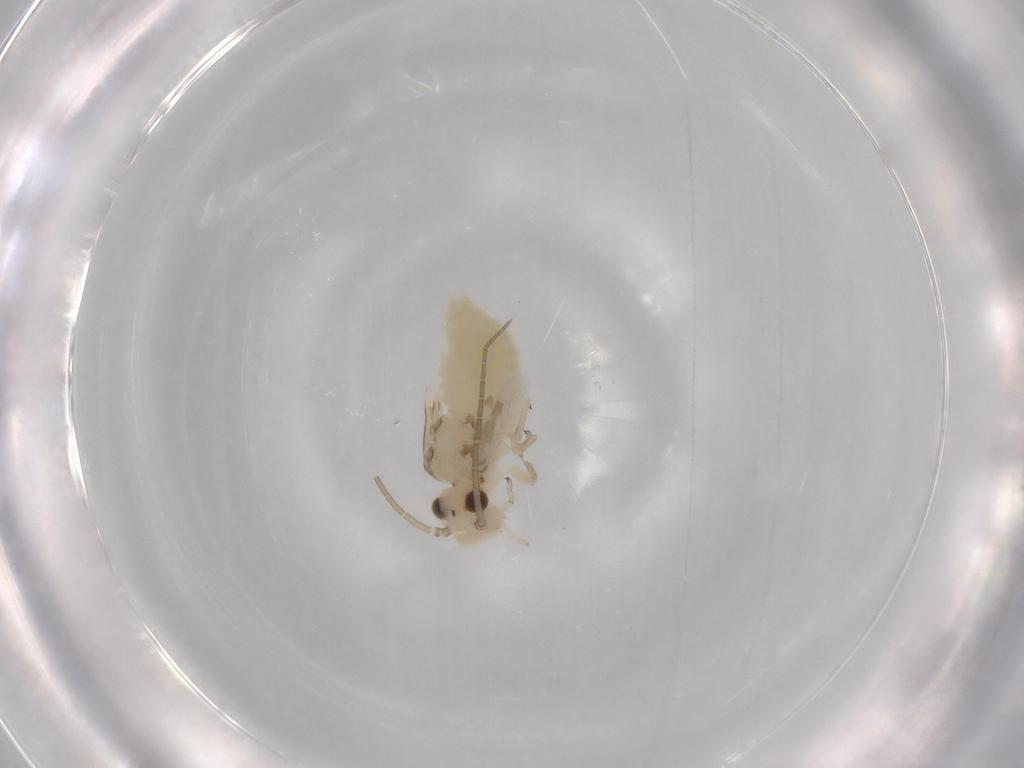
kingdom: Animalia
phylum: Arthropoda
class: Insecta
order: Psocodea
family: Caeciliusidae
